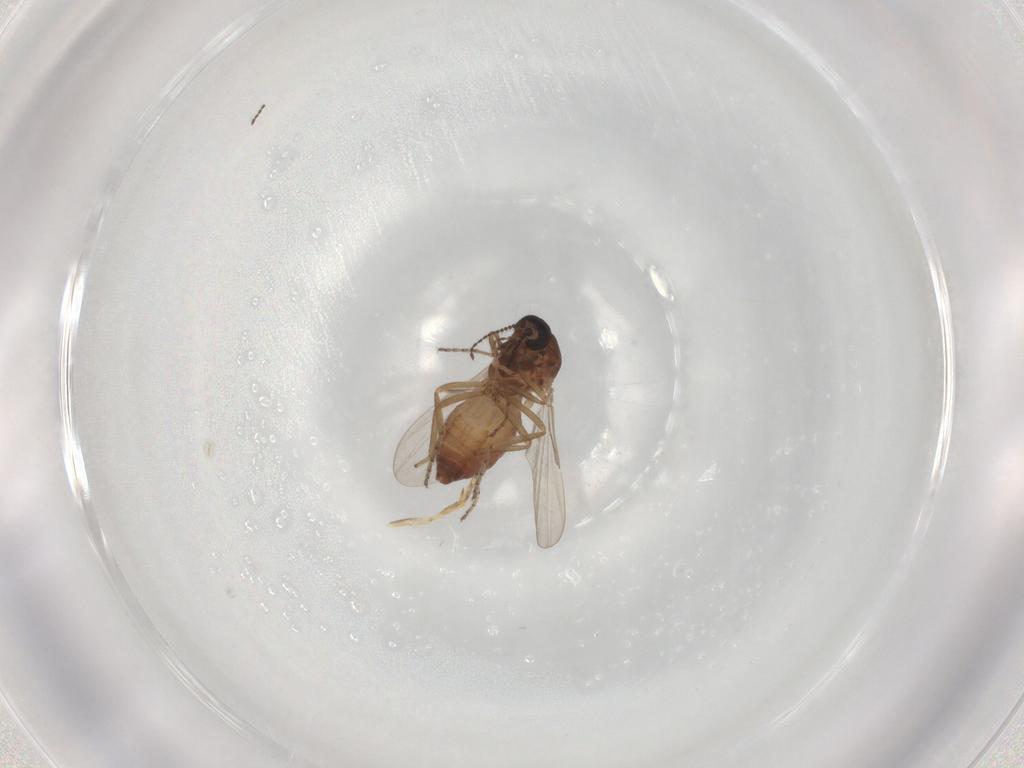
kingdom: Animalia
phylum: Arthropoda
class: Insecta
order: Diptera
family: Ceratopogonidae
